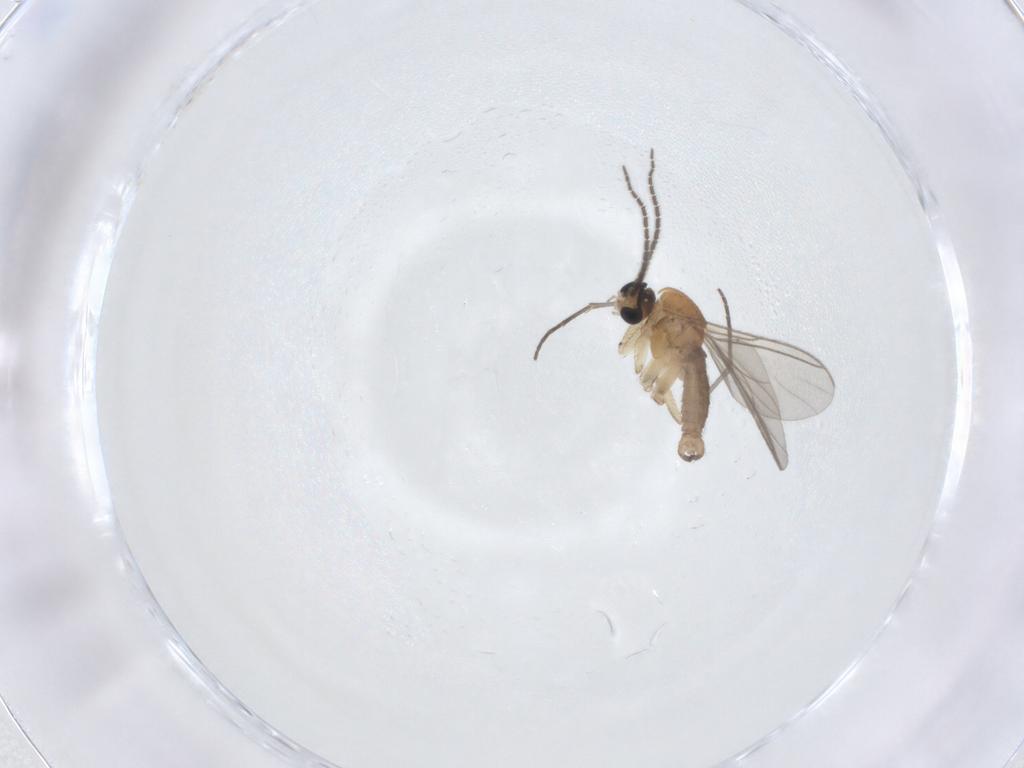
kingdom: Animalia
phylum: Arthropoda
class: Insecta
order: Diptera
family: Sciaridae
